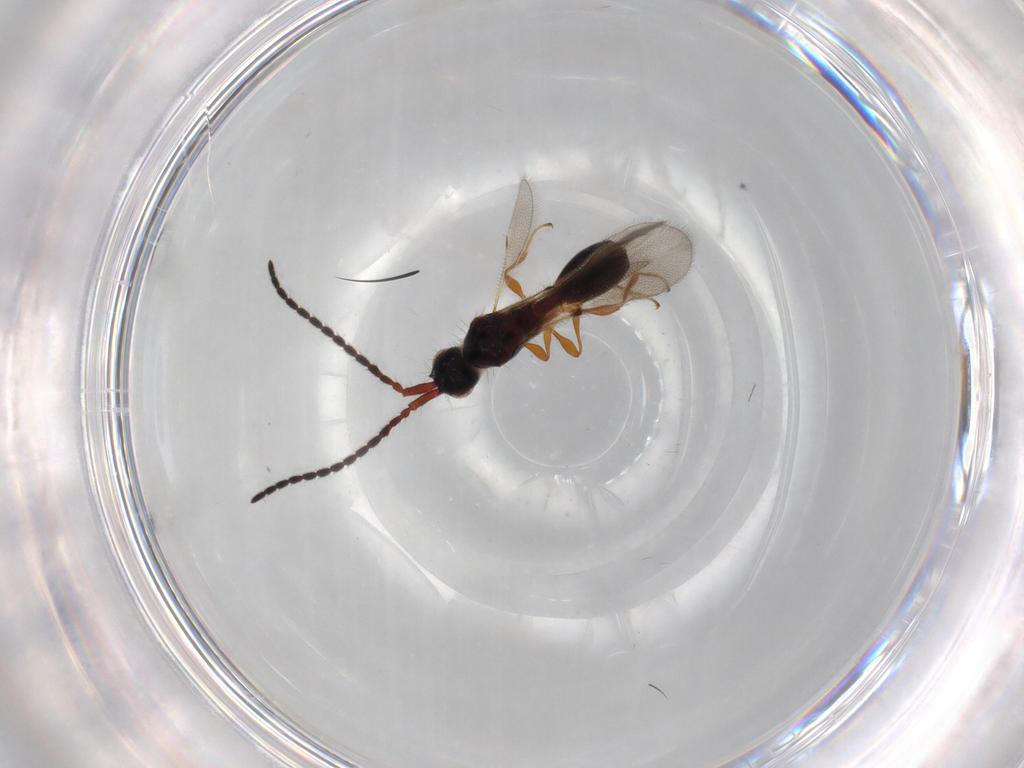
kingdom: Animalia
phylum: Arthropoda
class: Insecta
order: Hymenoptera
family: Diapriidae
